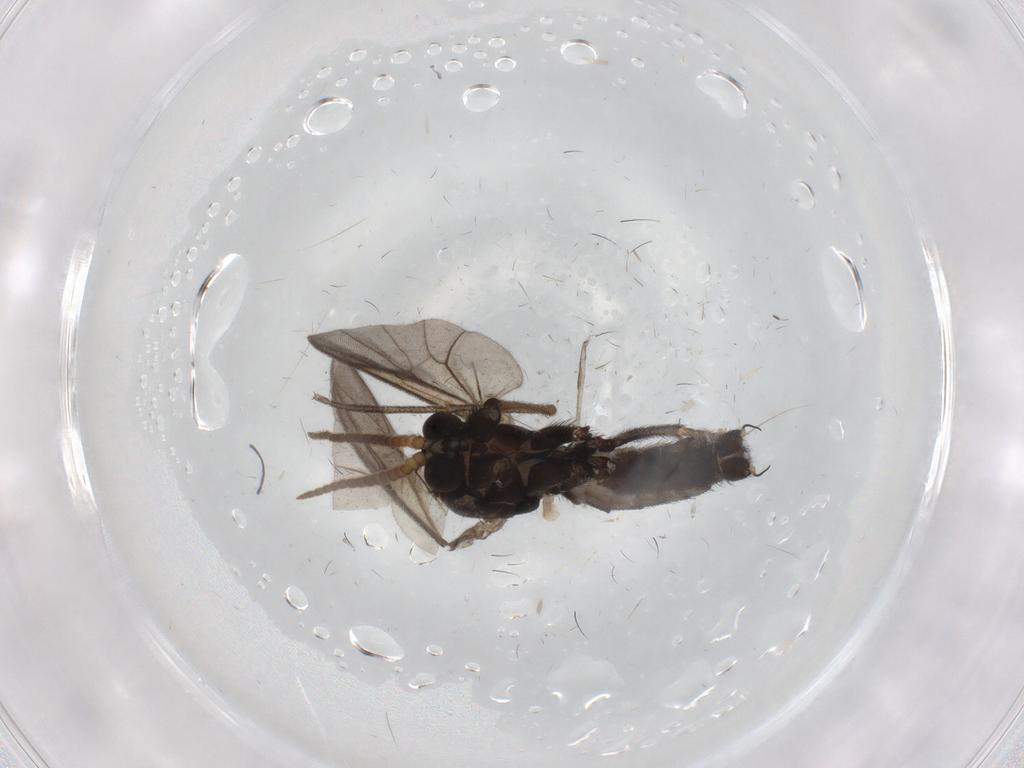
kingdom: Animalia
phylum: Arthropoda
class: Insecta
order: Diptera
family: Mycetophilidae
